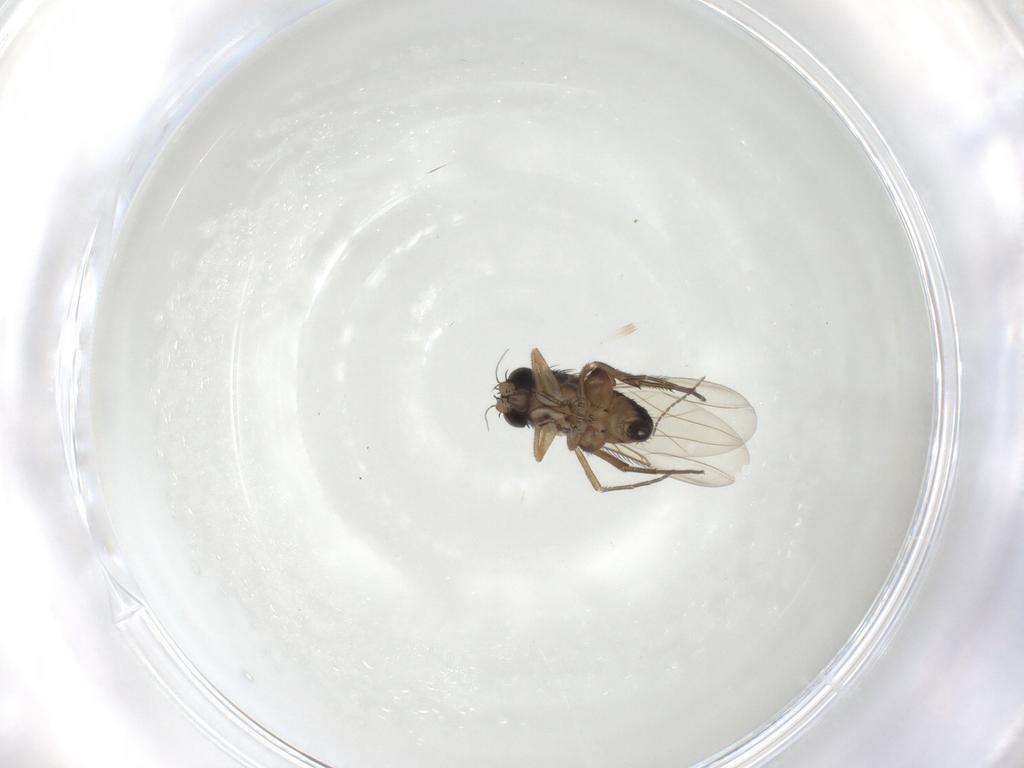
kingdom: Animalia
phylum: Arthropoda
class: Insecta
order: Diptera
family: Phoridae
